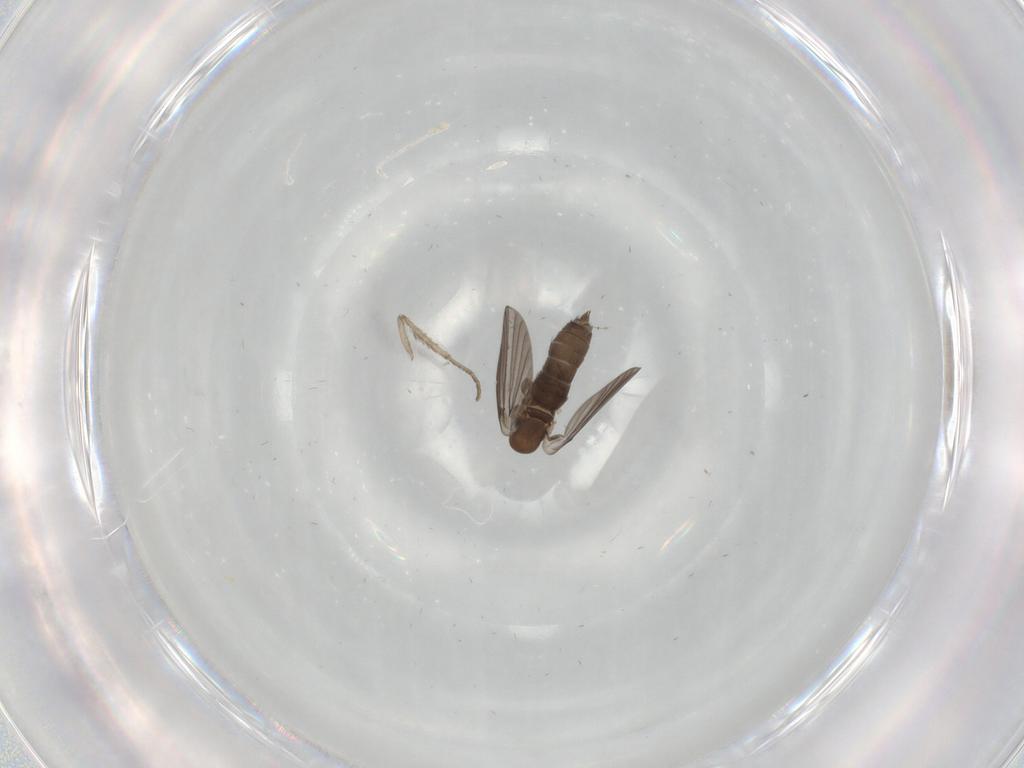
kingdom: Animalia
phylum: Arthropoda
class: Insecta
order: Diptera
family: Cecidomyiidae
